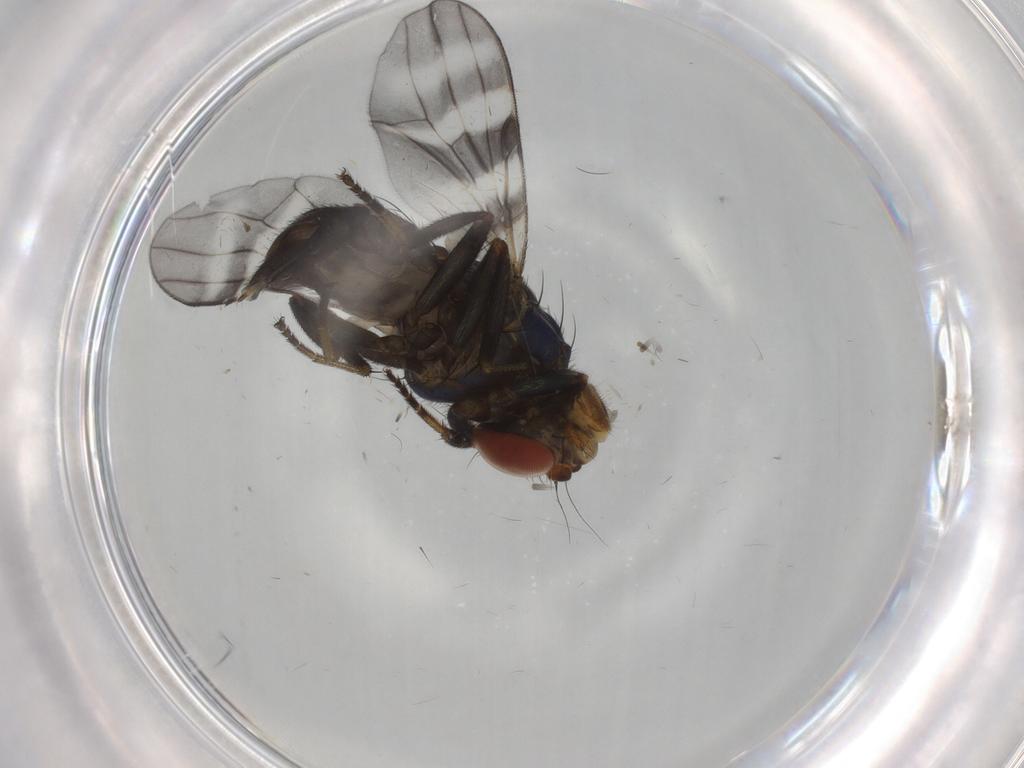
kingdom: Animalia
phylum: Arthropoda
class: Insecta
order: Diptera
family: Ulidiidae
